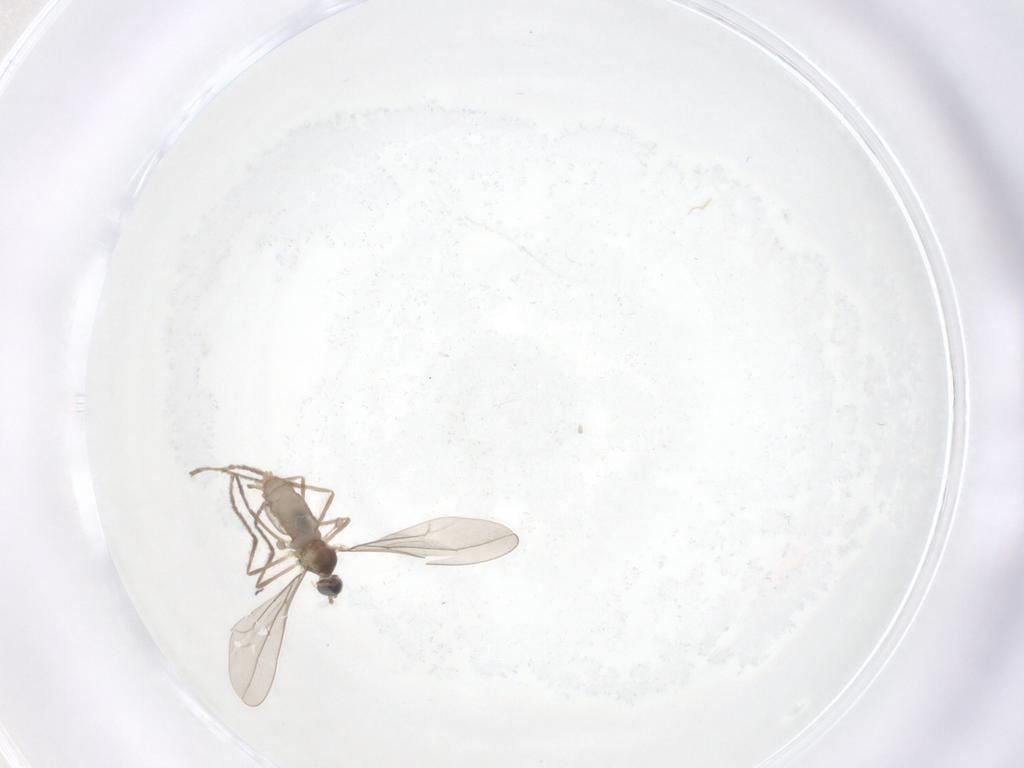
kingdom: Animalia
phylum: Arthropoda
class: Insecta
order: Diptera
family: Cecidomyiidae
